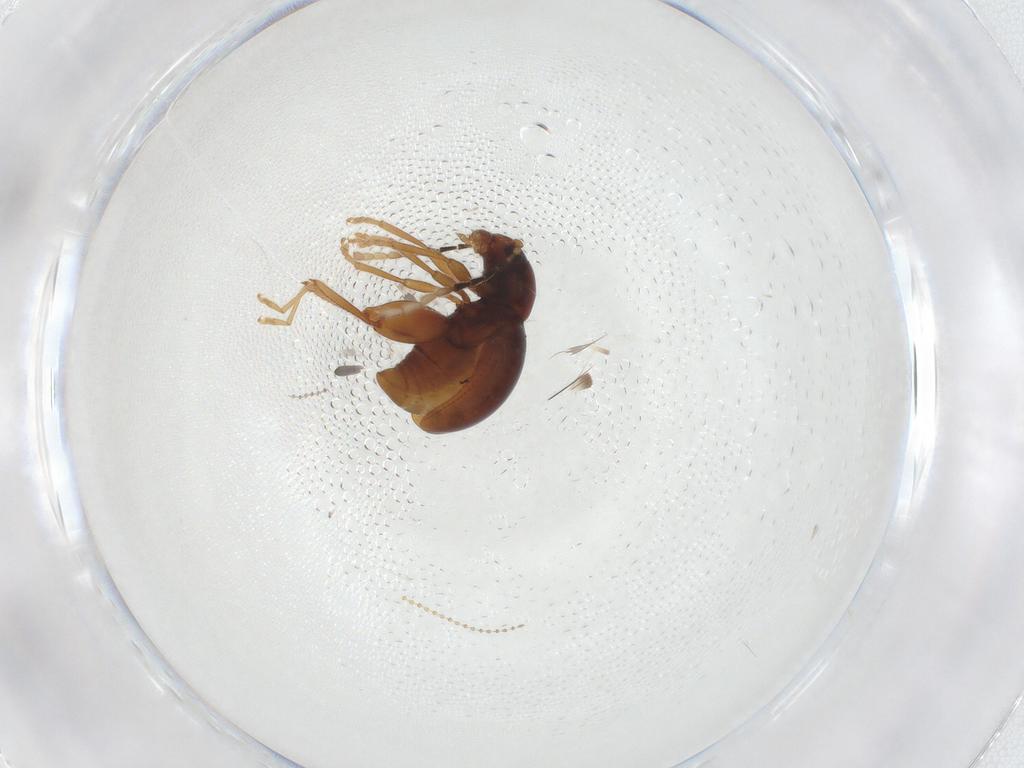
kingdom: Animalia
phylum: Arthropoda
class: Insecta
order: Coleoptera
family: Chrysomelidae
